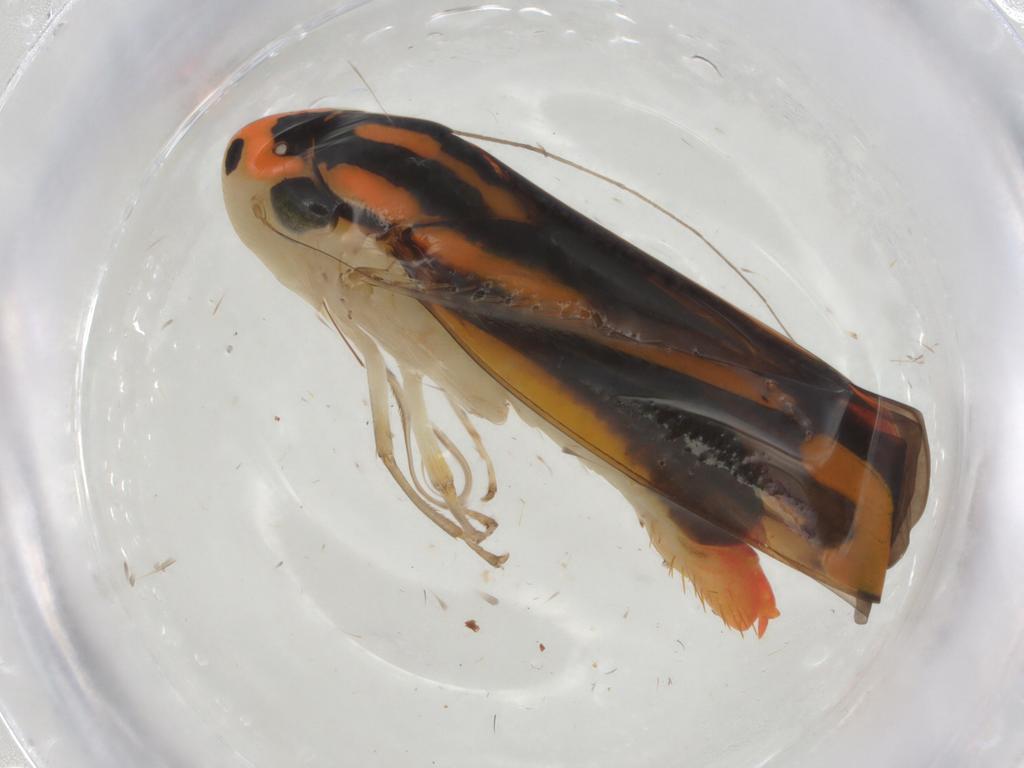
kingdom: Animalia
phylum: Arthropoda
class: Insecta
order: Hemiptera
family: Cicadellidae
